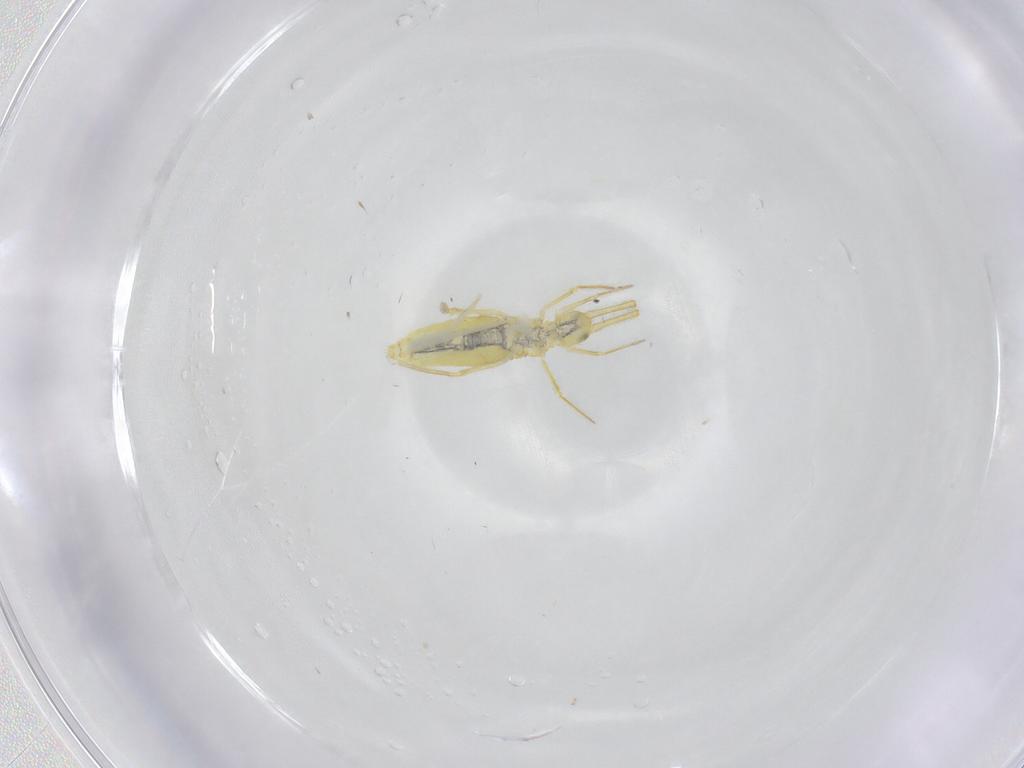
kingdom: Animalia
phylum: Arthropoda
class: Collembola
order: Entomobryomorpha
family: Paronellidae
